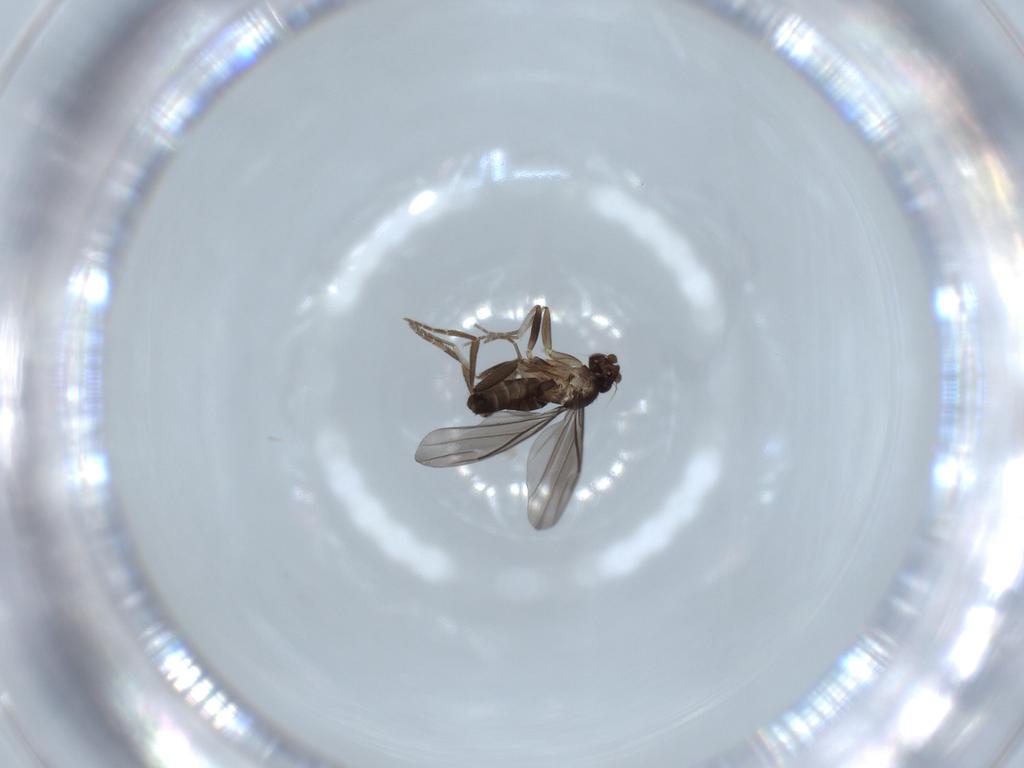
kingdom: Animalia
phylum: Arthropoda
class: Insecta
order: Diptera
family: Phoridae
